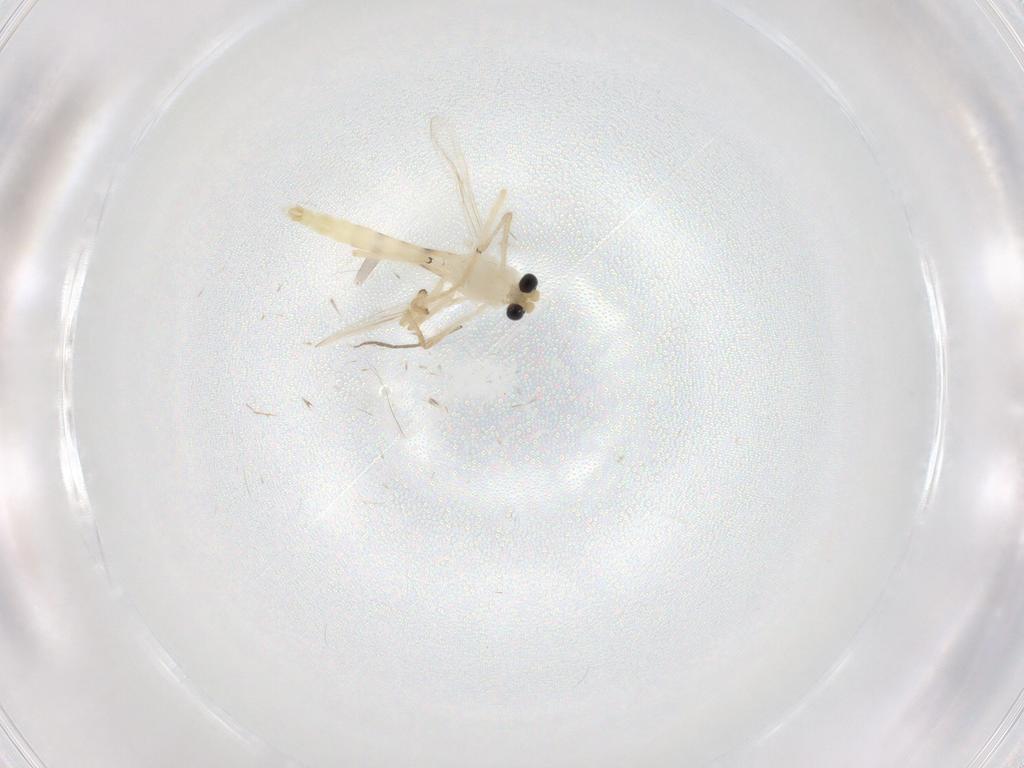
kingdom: Animalia
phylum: Arthropoda
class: Insecta
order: Diptera
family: Chironomidae
